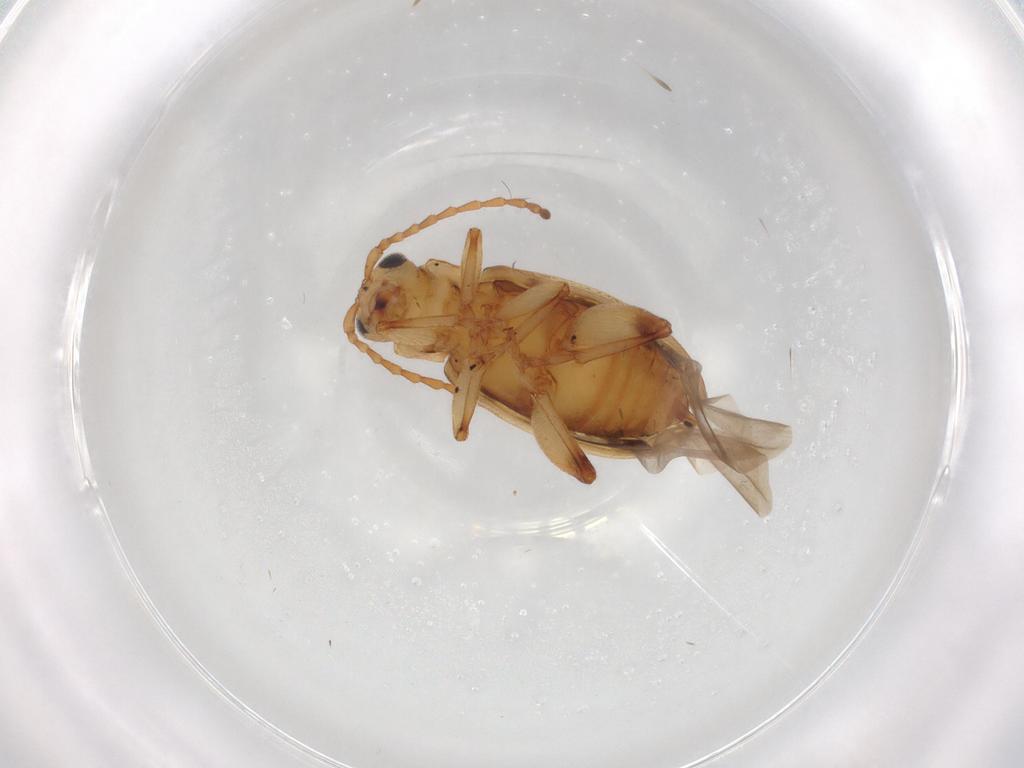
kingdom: Animalia
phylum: Arthropoda
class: Insecta
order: Coleoptera
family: Chrysomelidae
